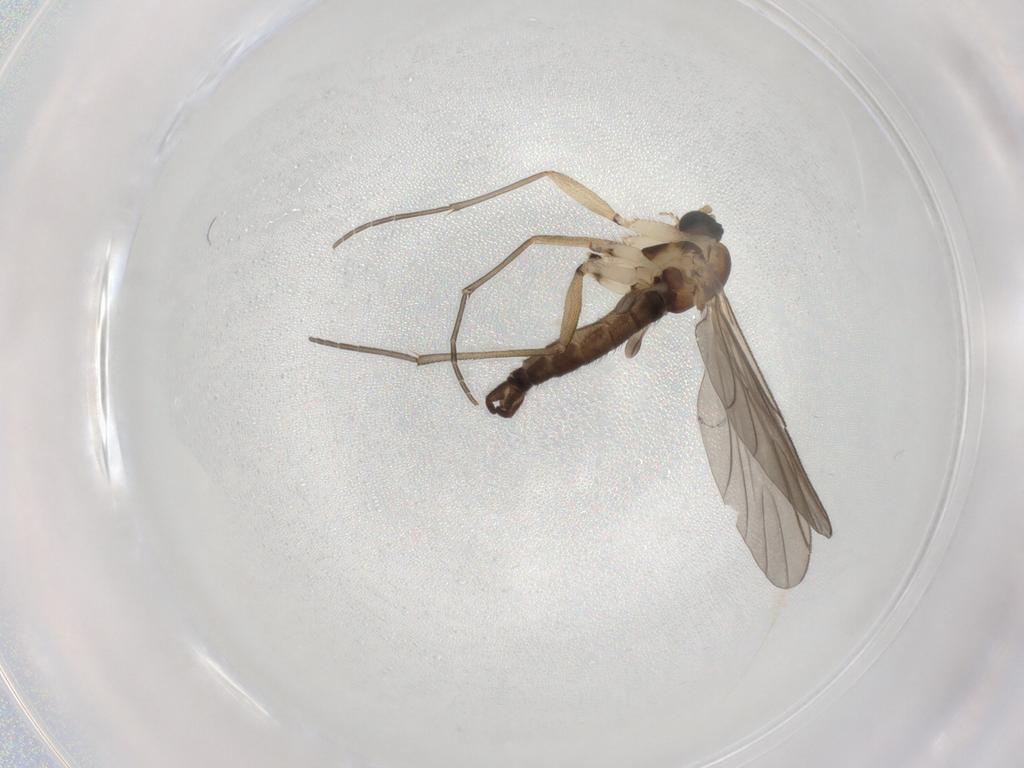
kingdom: Animalia
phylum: Arthropoda
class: Insecta
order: Diptera
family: Sciaridae
